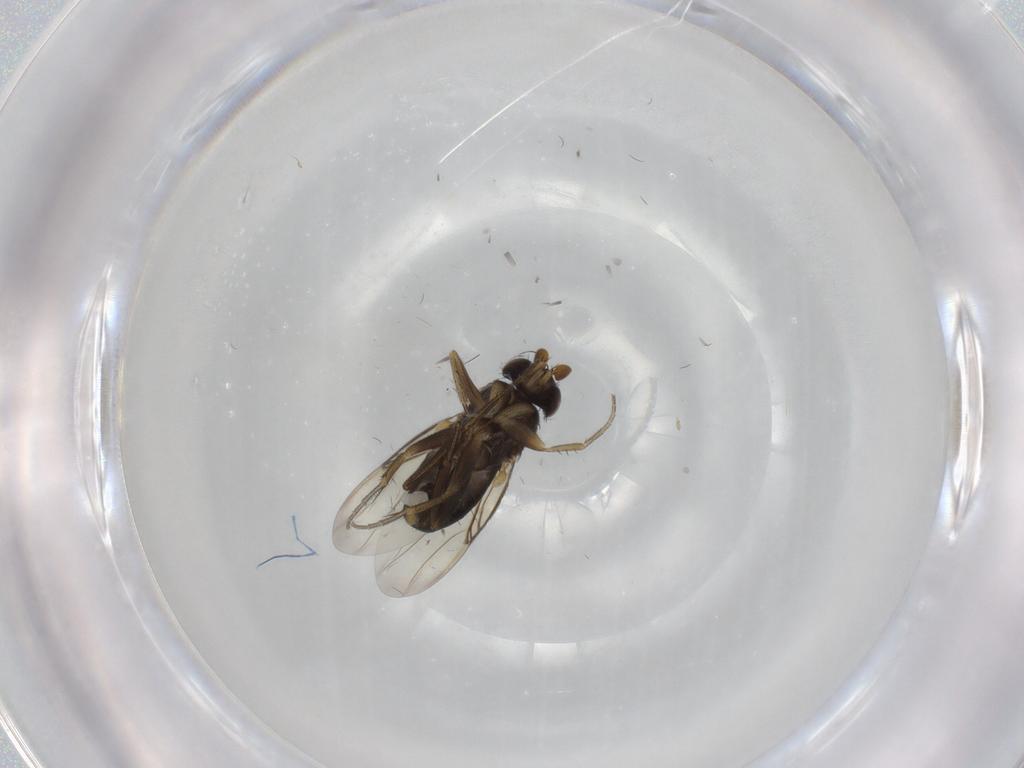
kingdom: Animalia
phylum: Arthropoda
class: Insecta
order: Diptera
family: Phoridae
